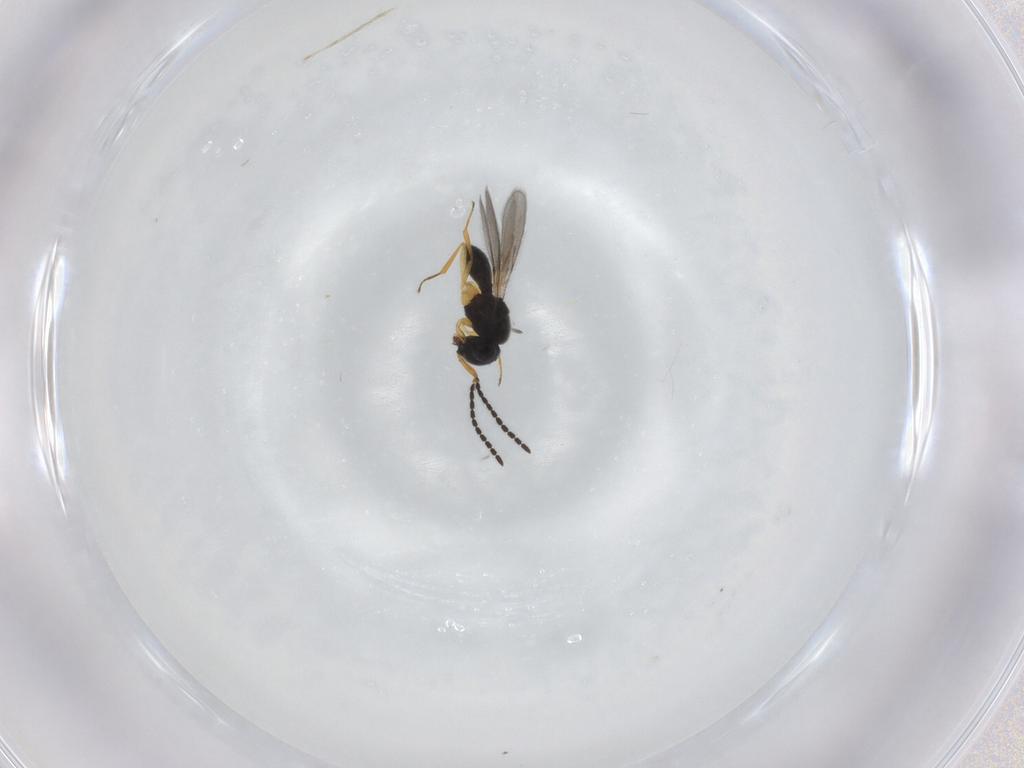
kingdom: Animalia
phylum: Arthropoda
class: Insecta
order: Hymenoptera
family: Scelionidae
